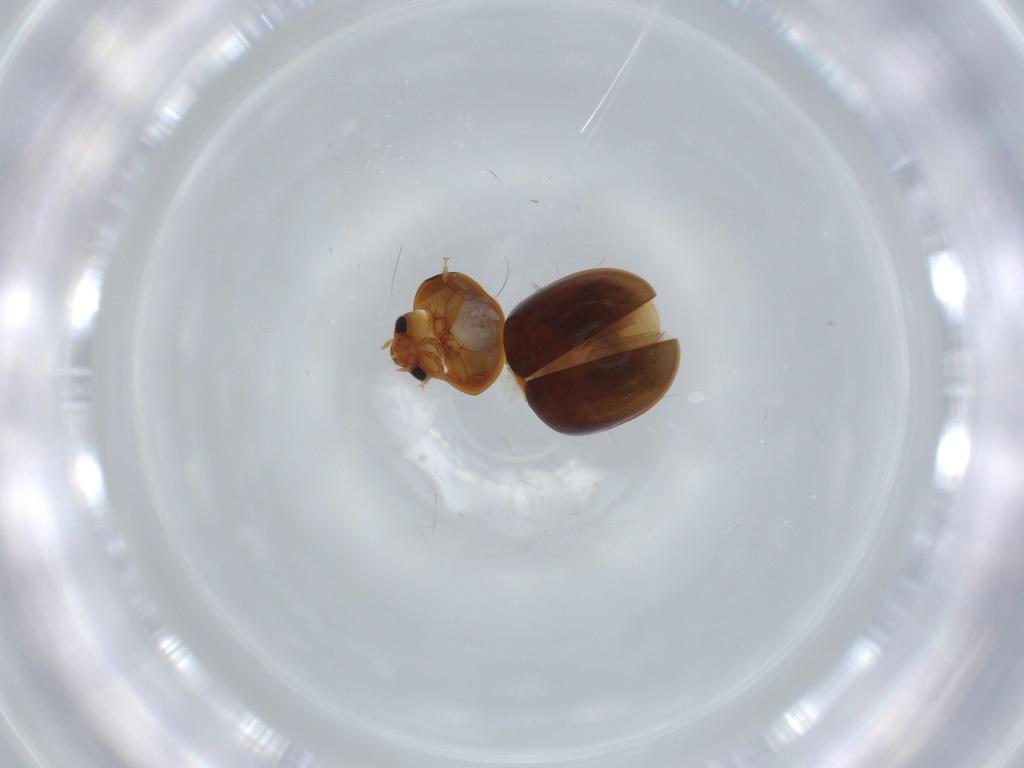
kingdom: Animalia
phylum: Arthropoda
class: Insecta
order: Coleoptera
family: Phalacridae
